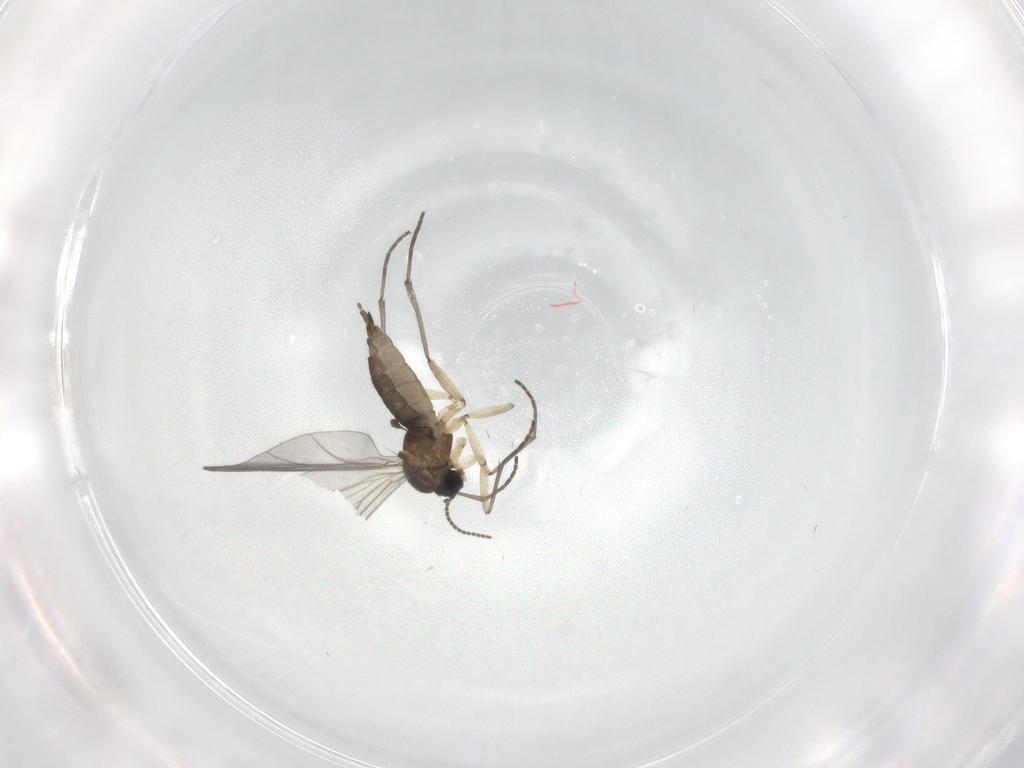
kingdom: Animalia
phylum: Arthropoda
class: Insecta
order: Diptera
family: Sciaridae
